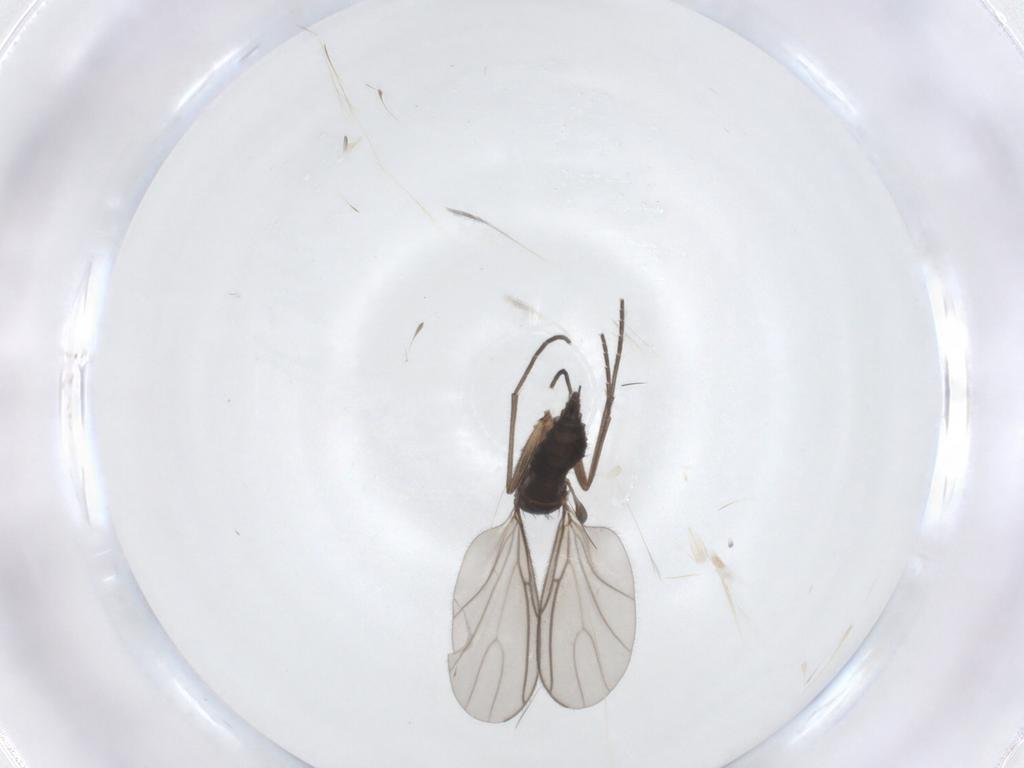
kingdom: Animalia
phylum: Arthropoda
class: Insecta
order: Diptera
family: Sciaridae
